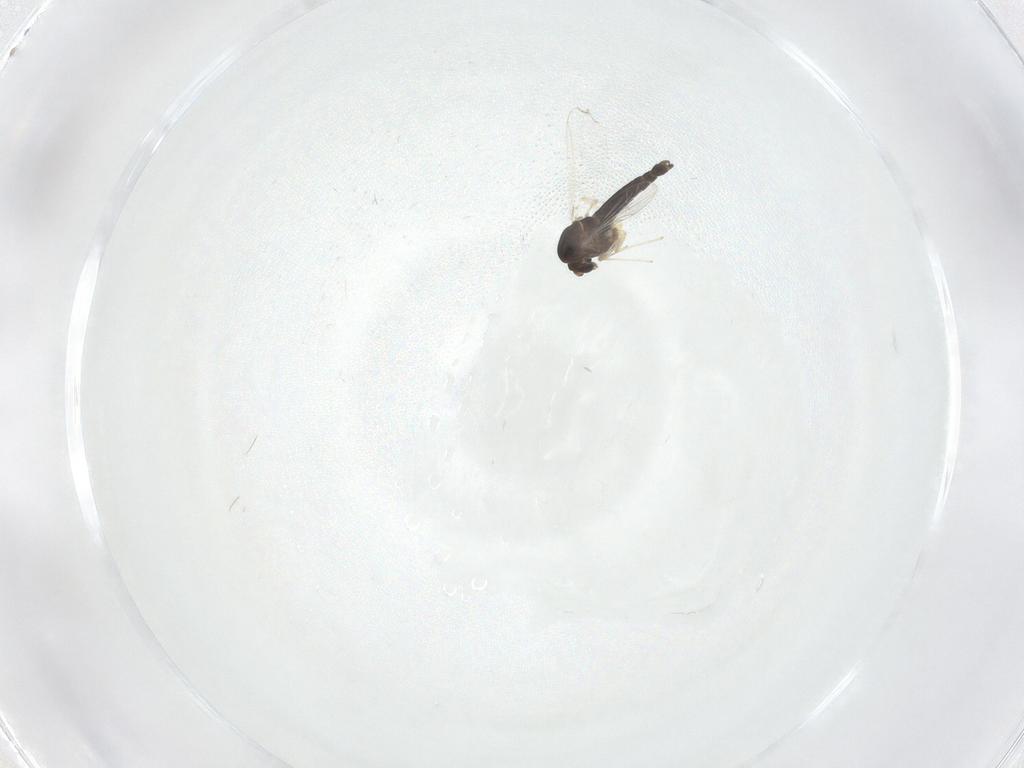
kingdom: Animalia
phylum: Arthropoda
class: Insecta
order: Diptera
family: Chironomidae
